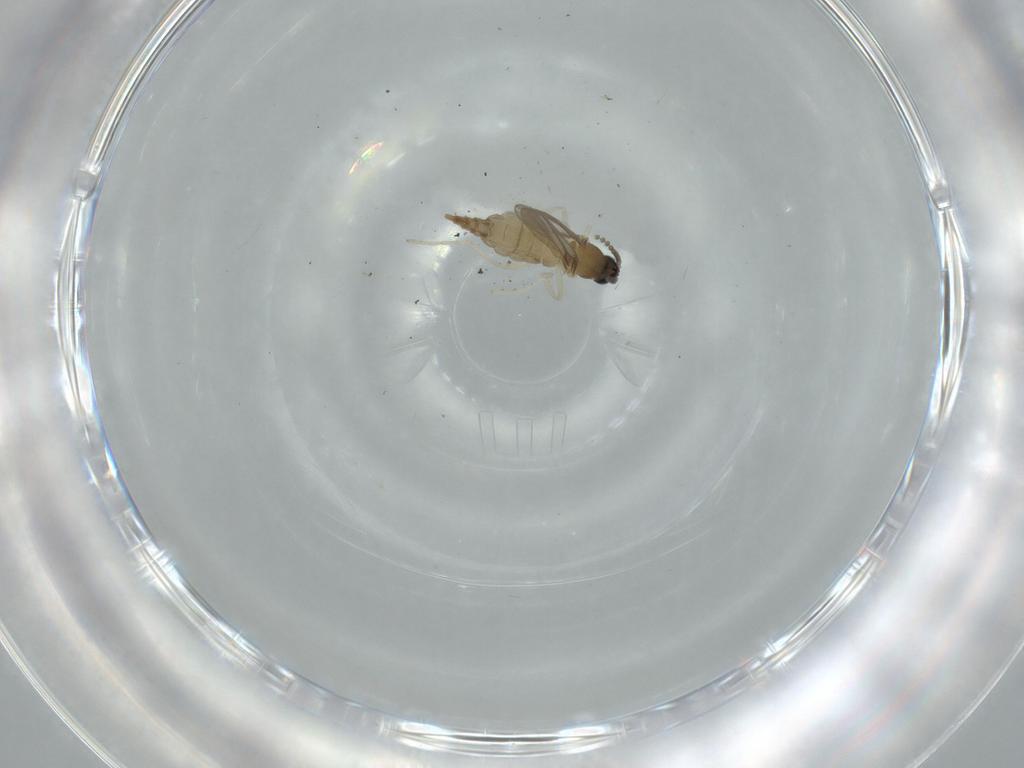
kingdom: Animalia
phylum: Arthropoda
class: Insecta
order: Diptera
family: Cecidomyiidae
